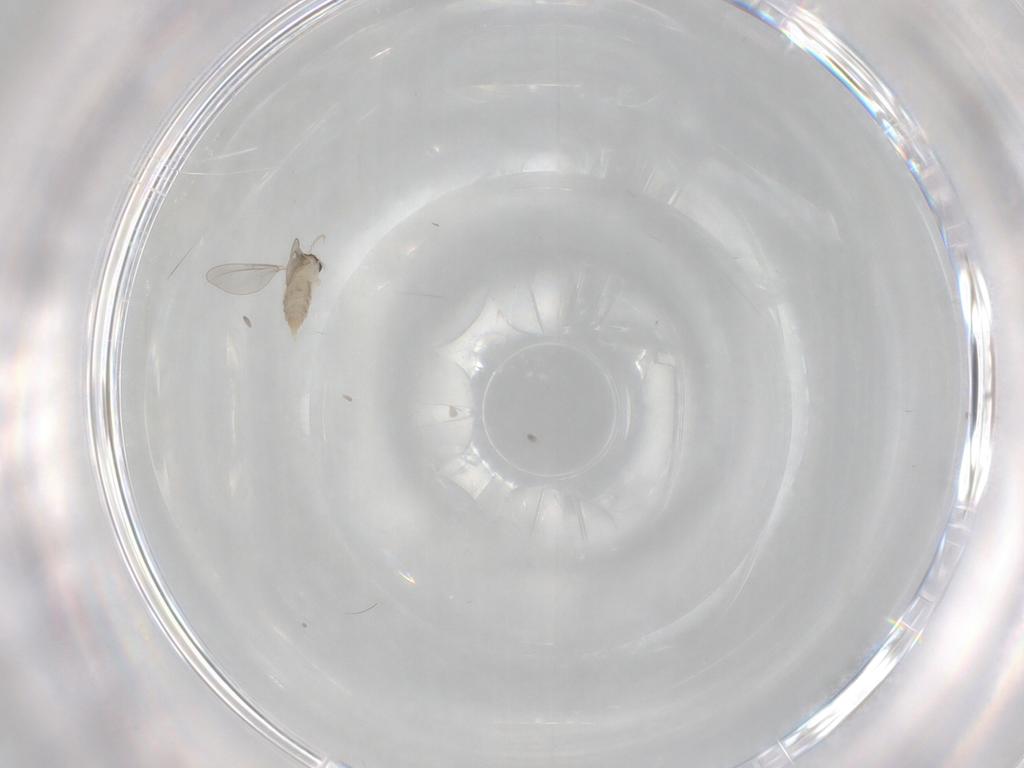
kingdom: Animalia
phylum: Arthropoda
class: Insecta
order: Diptera
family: Cecidomyiidae
